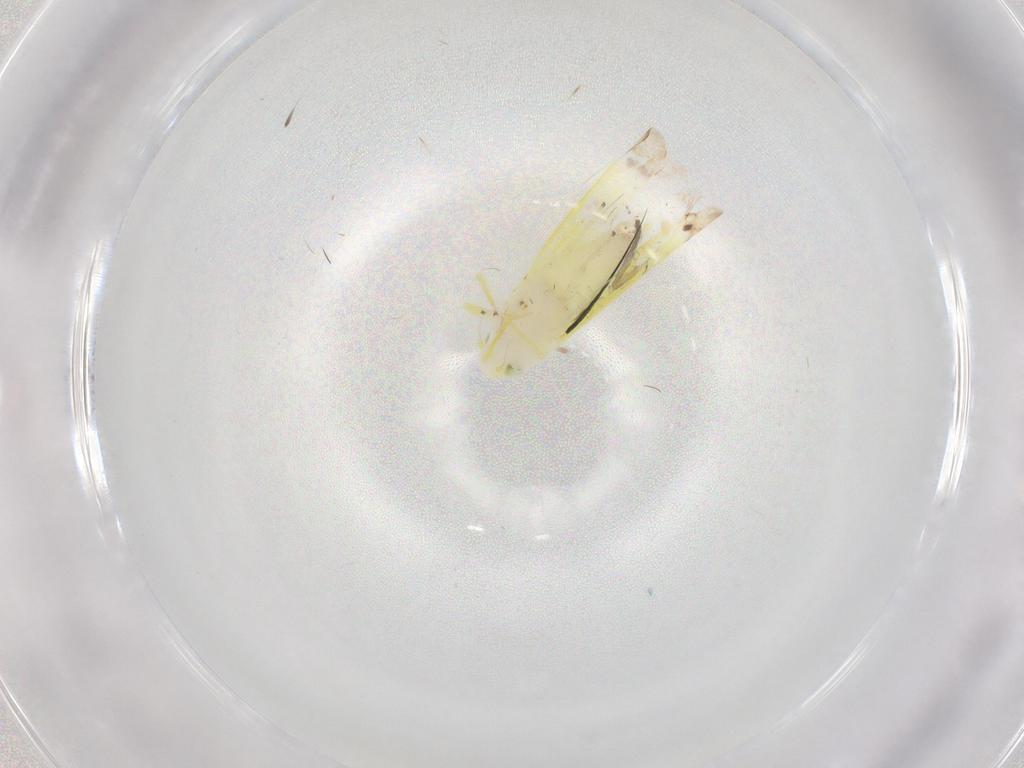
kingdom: Animalia
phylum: Arthropoda
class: Insecta
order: Hemiptera
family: Cicadellidae
